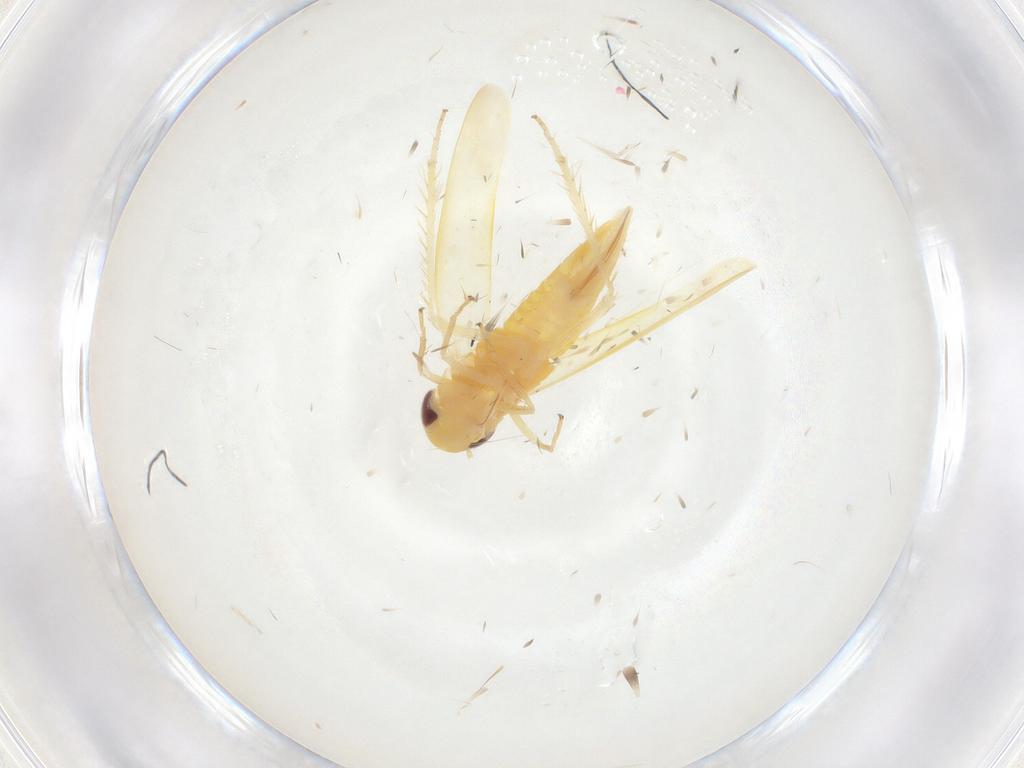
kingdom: Animalia
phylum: Arthropoda
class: Insecta
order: Hemiptera
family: Cicadellidae
